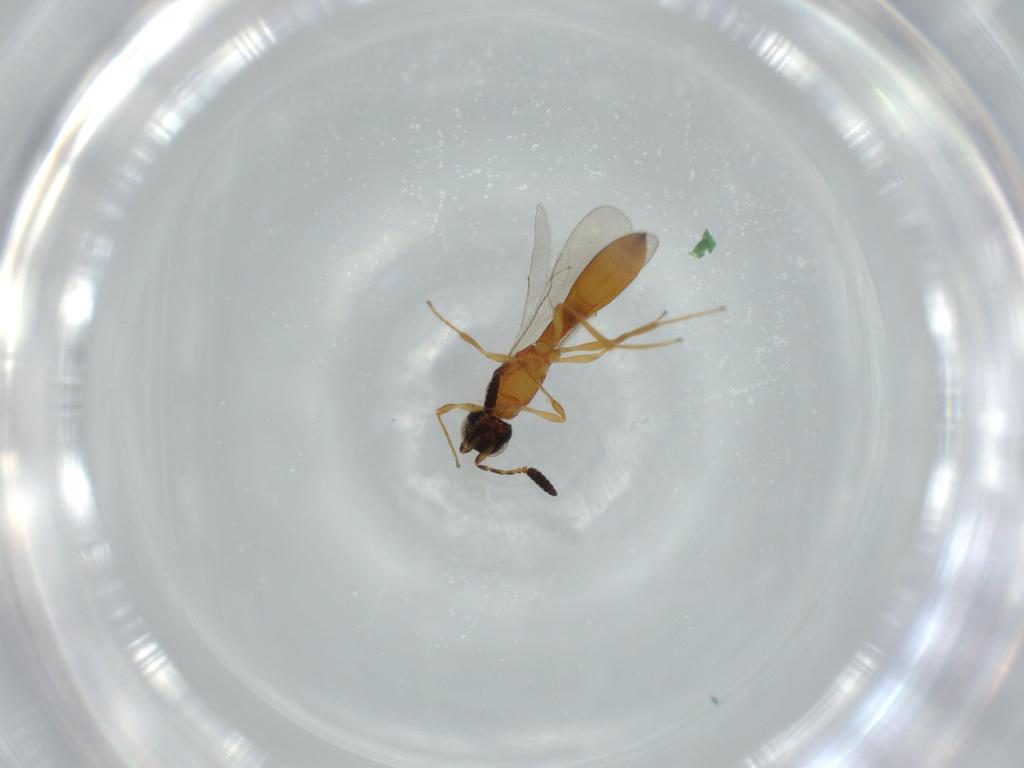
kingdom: Animalia
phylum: Arthropoda
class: Insecta
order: Hymenoptera
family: Scelionidae
